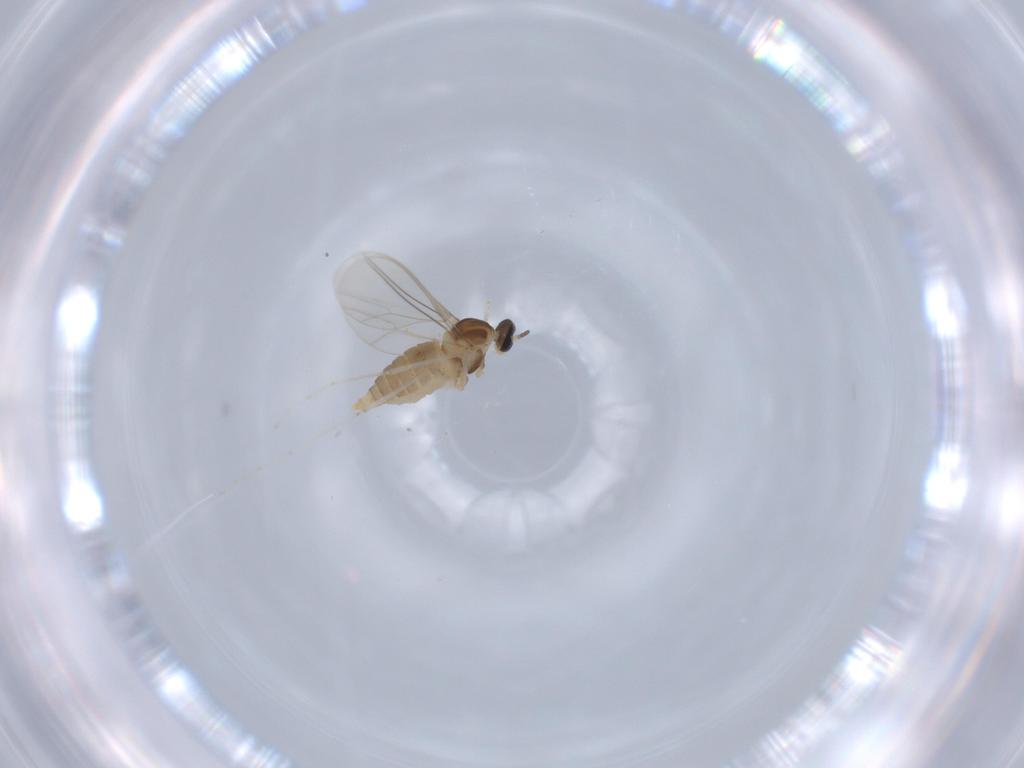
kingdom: Animalia
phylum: Arthropoda
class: Insecta
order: Diptera
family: Cecidomyiidae
